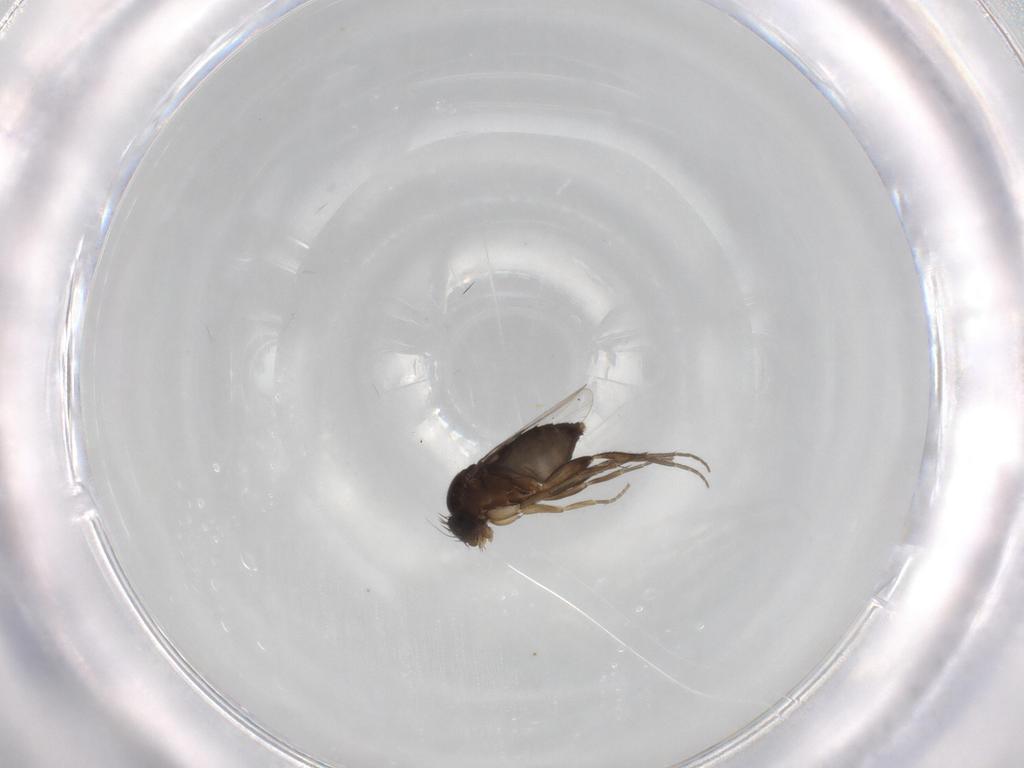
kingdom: Animalia
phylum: Arthropoda
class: Insecta
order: Diptera
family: Phoridae
